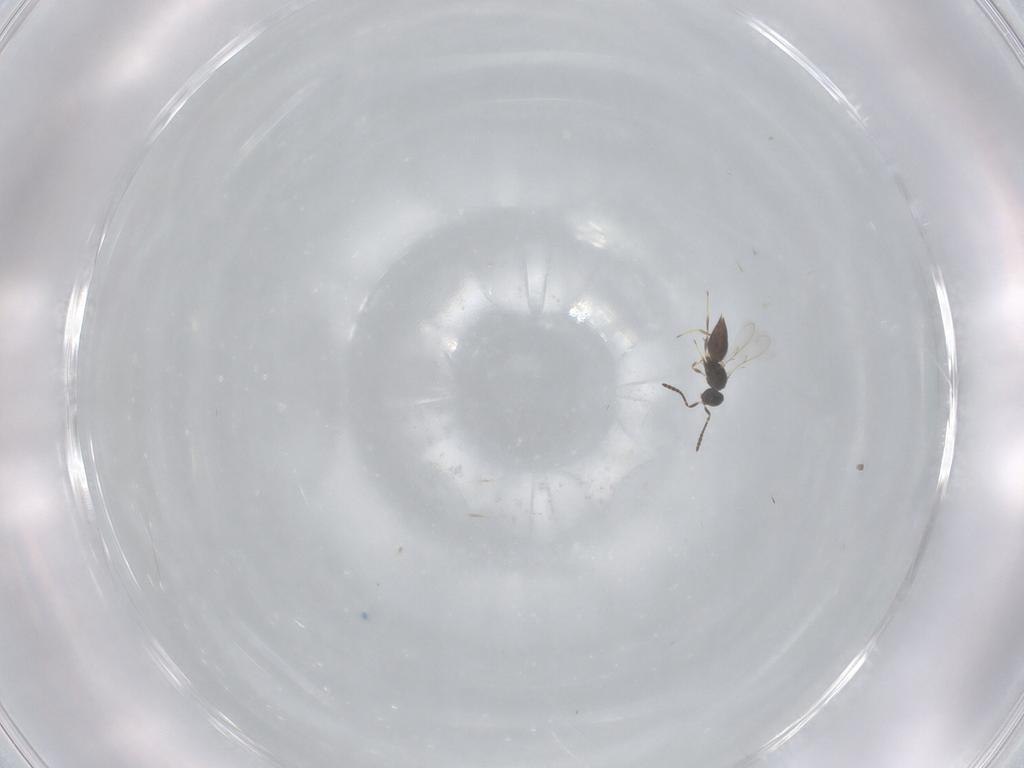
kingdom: Animalia
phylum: Arthropoda
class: Insecta
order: Hymenoptera
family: Scelionidae
